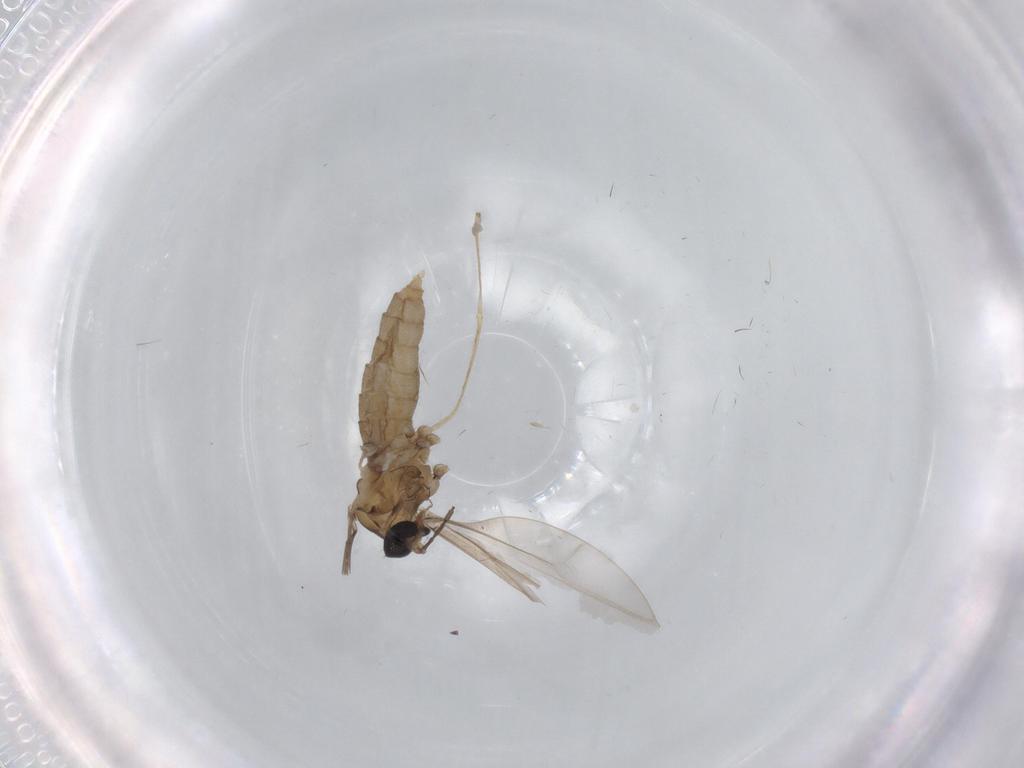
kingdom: Animalia
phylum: Arthropoda
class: Insecta
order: Diptera
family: Cecidomyiidae
